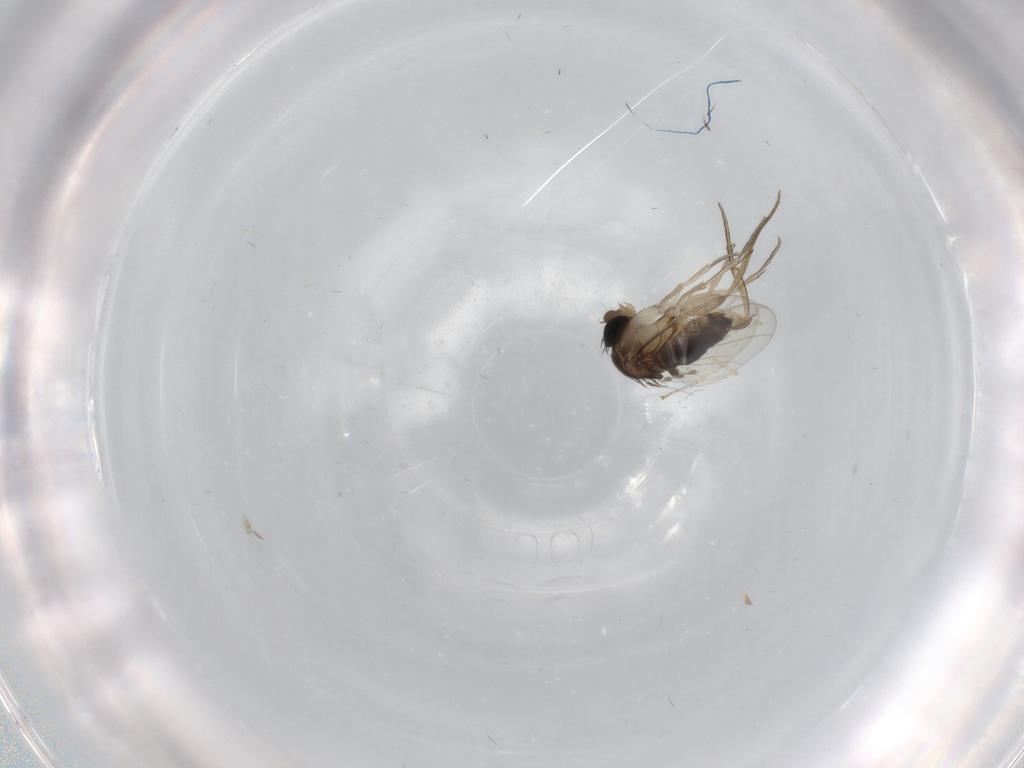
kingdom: Animalia
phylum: Arthropoda
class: Insecta
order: Diptera
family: Cecidomyiidae
